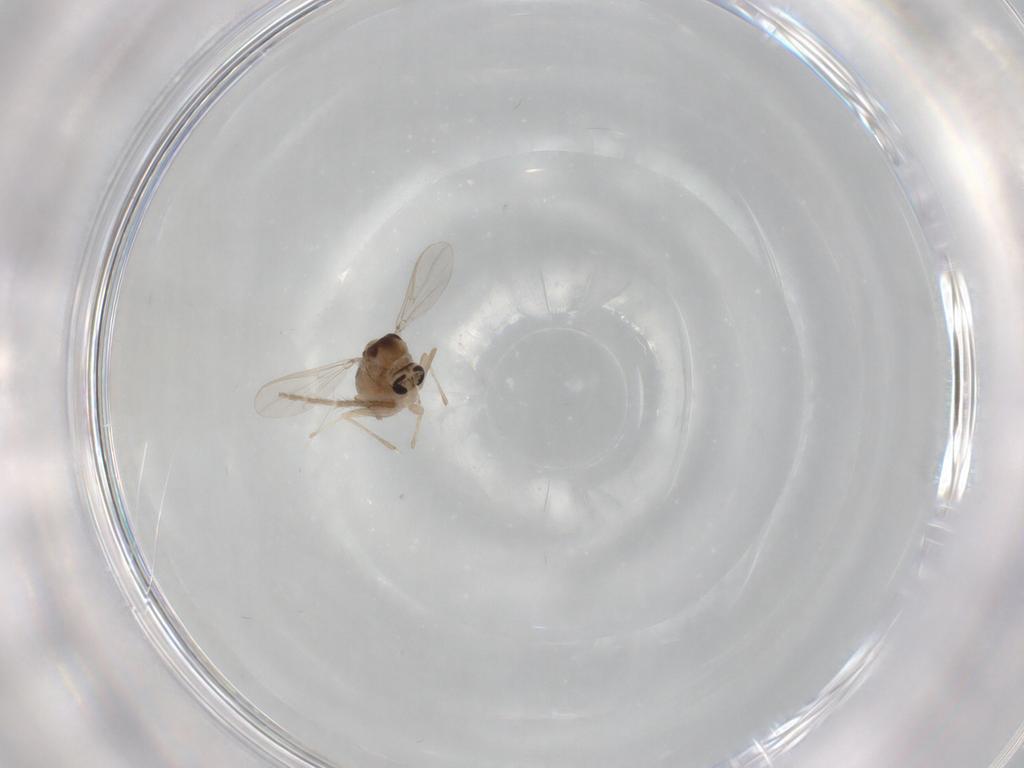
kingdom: Animalia
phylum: Arthropoda
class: Insecta
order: Diptera
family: Chironomidae
